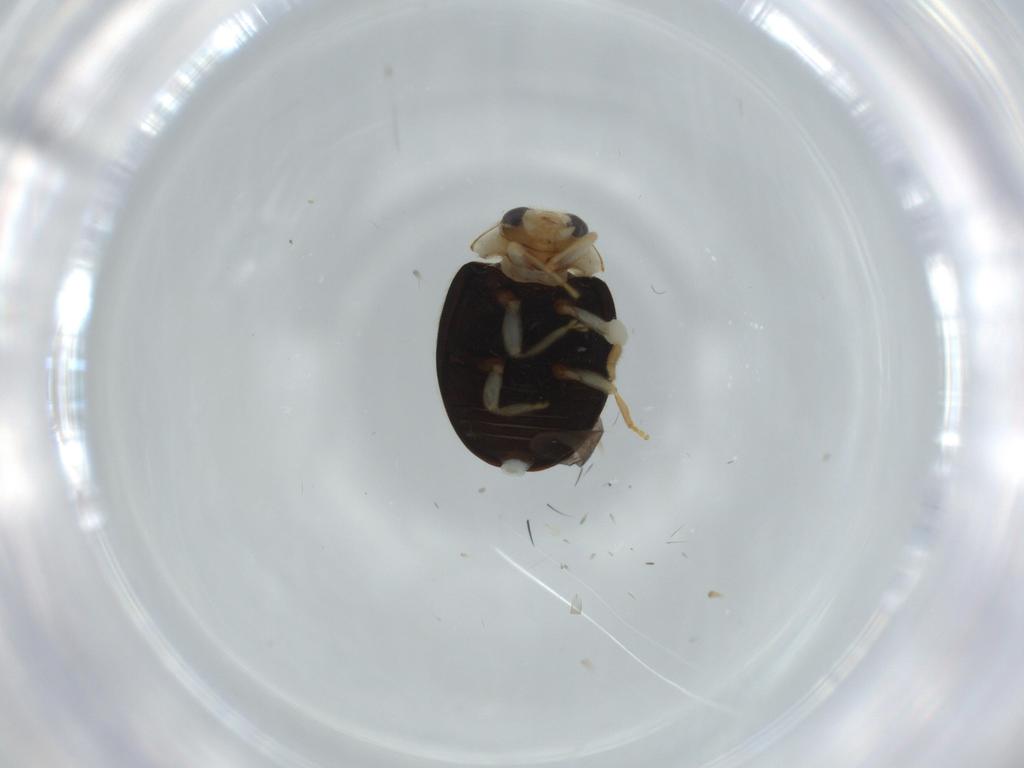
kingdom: Animalia
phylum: Arthropoda
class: Insecta
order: Coleoptera
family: Coccinellidae
